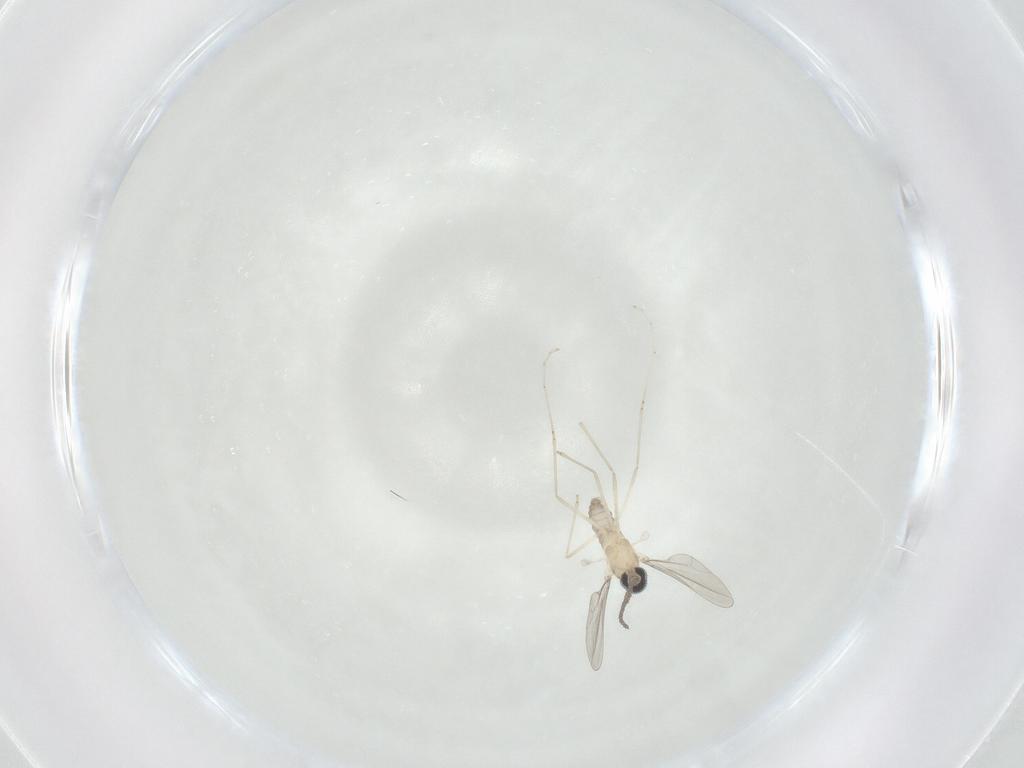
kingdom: Animalia
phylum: Arthropoda
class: Insecta
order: Diptera
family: Cecidomyiidae
